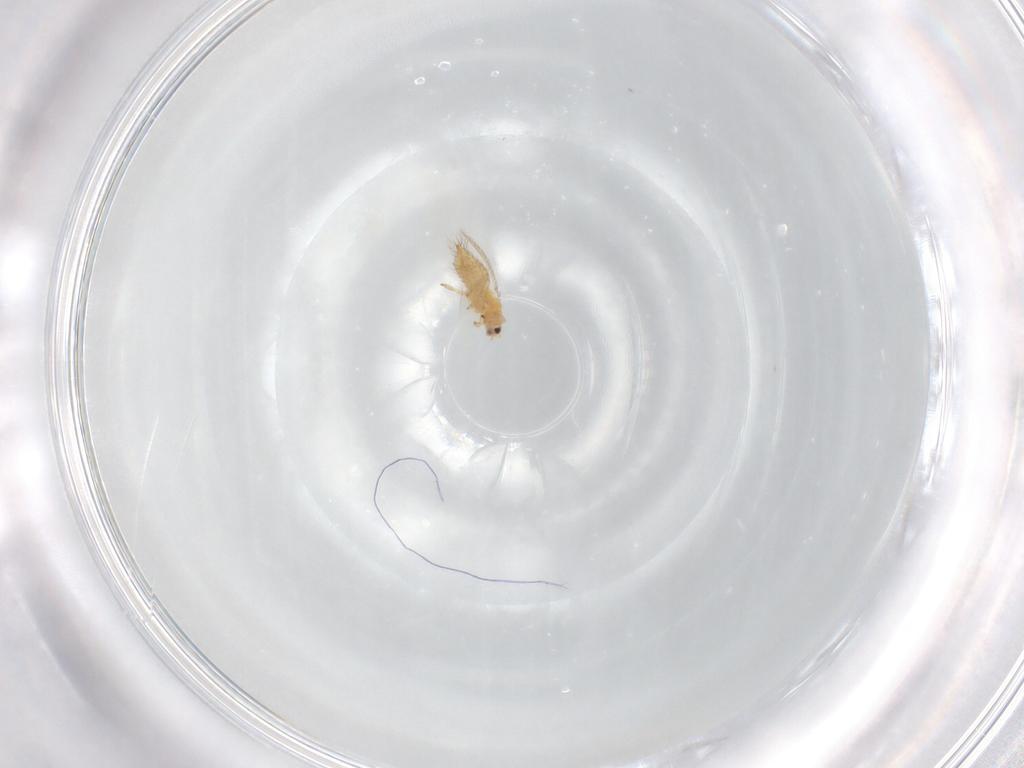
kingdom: Animalia
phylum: Arthropoda
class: Insecta
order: Thysanoptera
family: Thripidae
